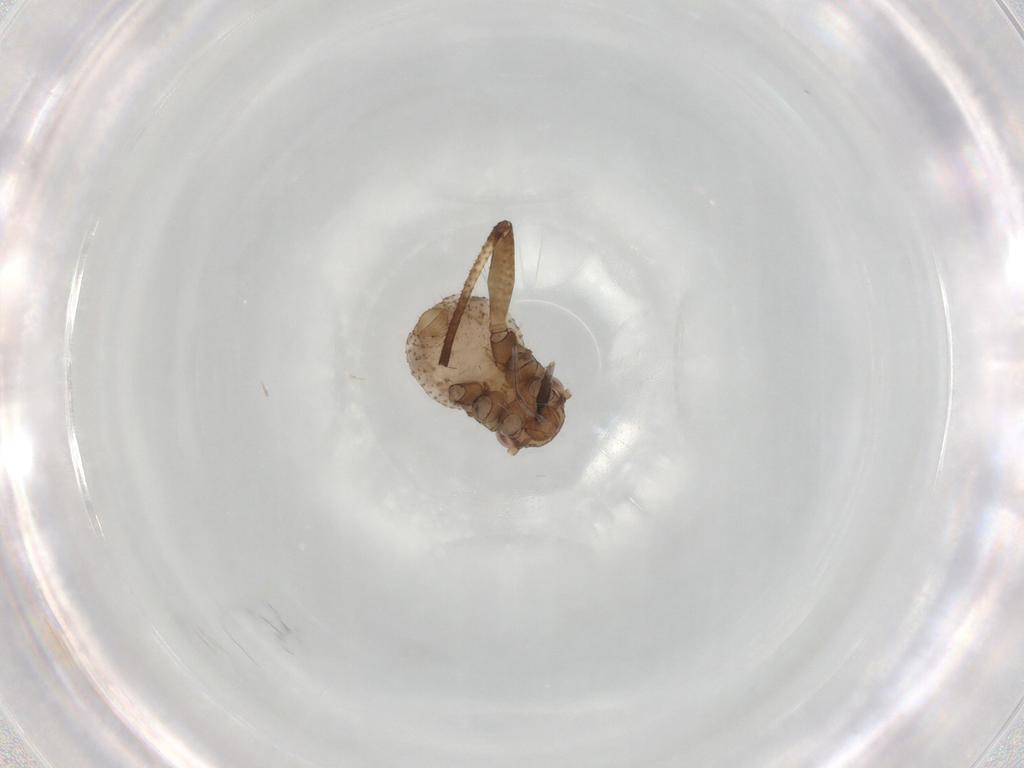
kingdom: Animalia
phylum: Arthropoda
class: Insecta
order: Hemiptera
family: Aphididae
